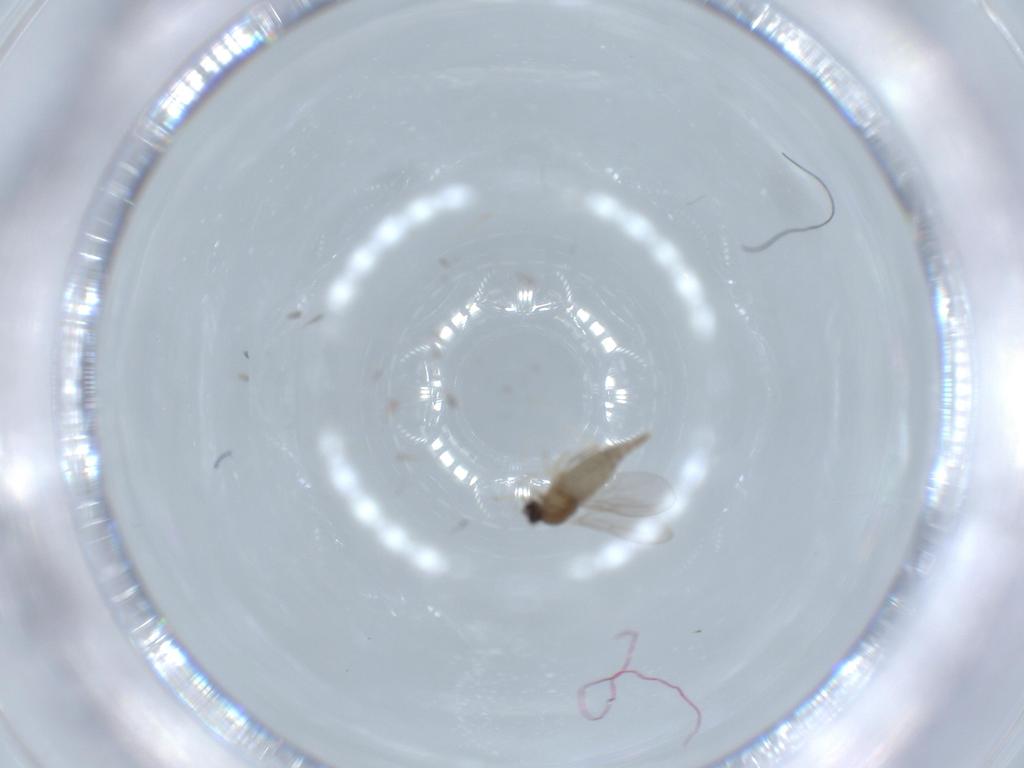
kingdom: Animalia
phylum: Arthropoda
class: Insecta
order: Diptera
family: Cecidomyiidae
